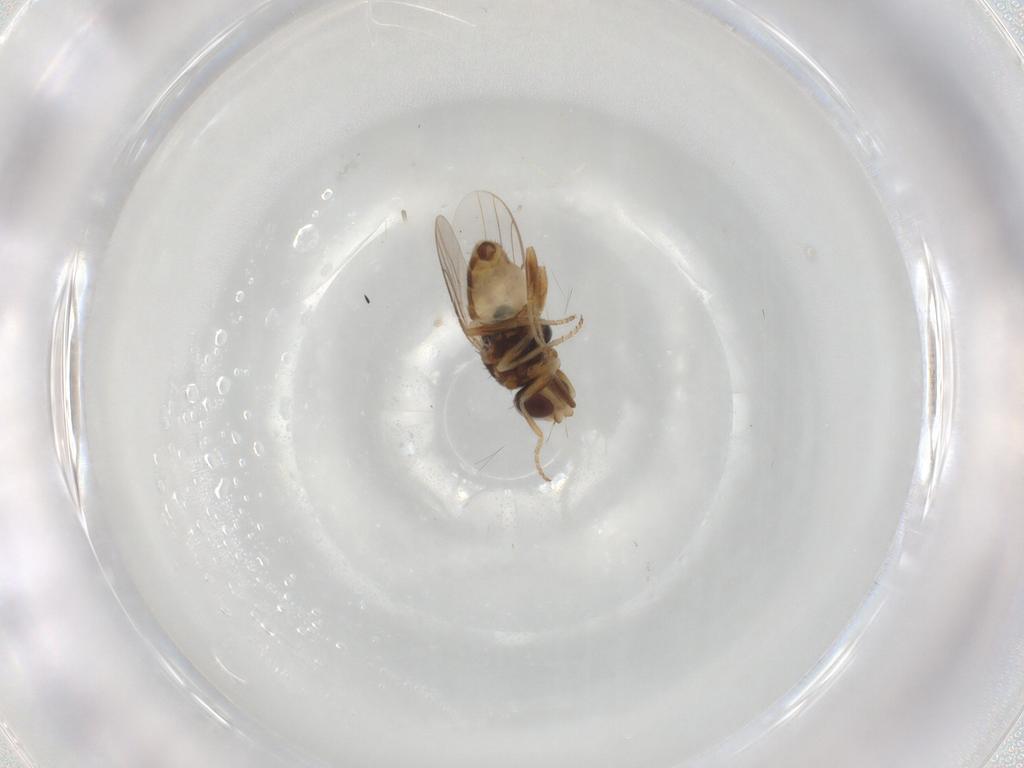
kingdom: Animalia
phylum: Arthropoda
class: Insecta
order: Diptera
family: Chloropidae
